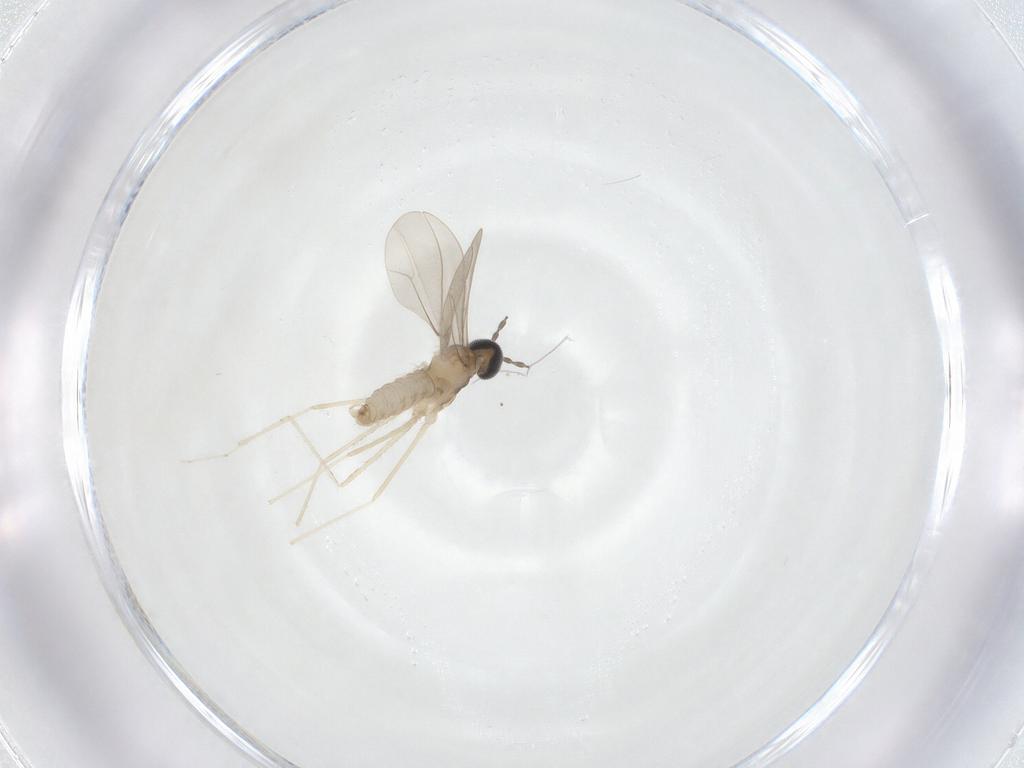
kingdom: Animalia
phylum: Arthropoda
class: Insecta
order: Diptera
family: Cecidomyiidae
